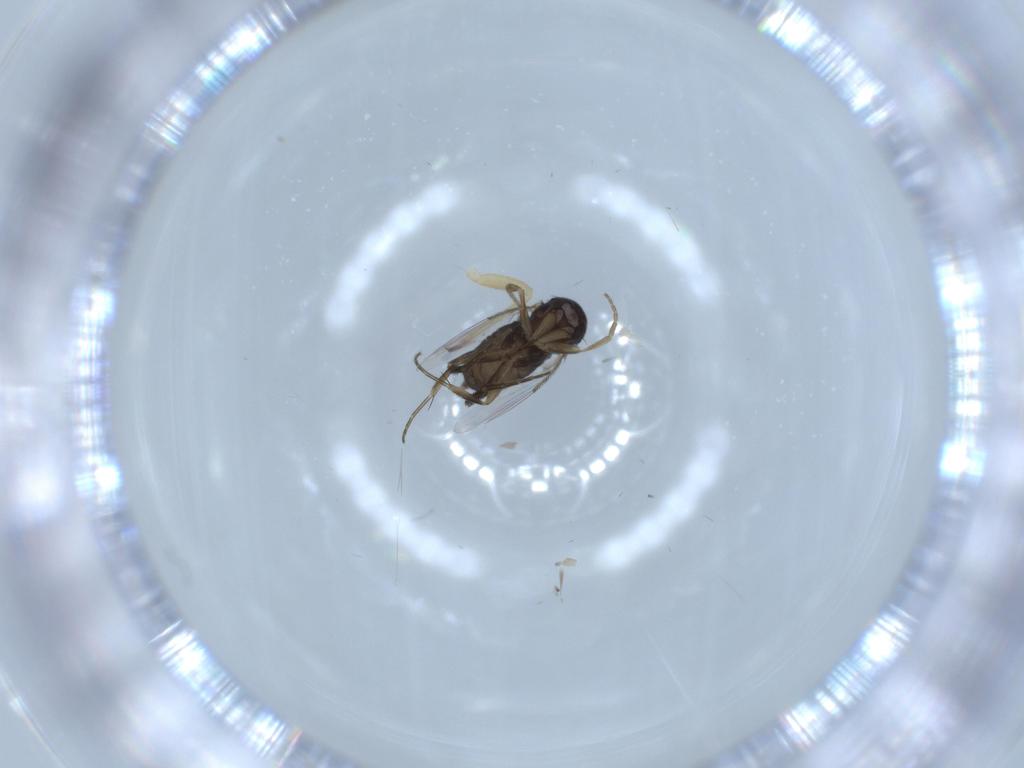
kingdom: Animalia
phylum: Arthropoda
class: Insecta
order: Diptera
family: Phoridae
